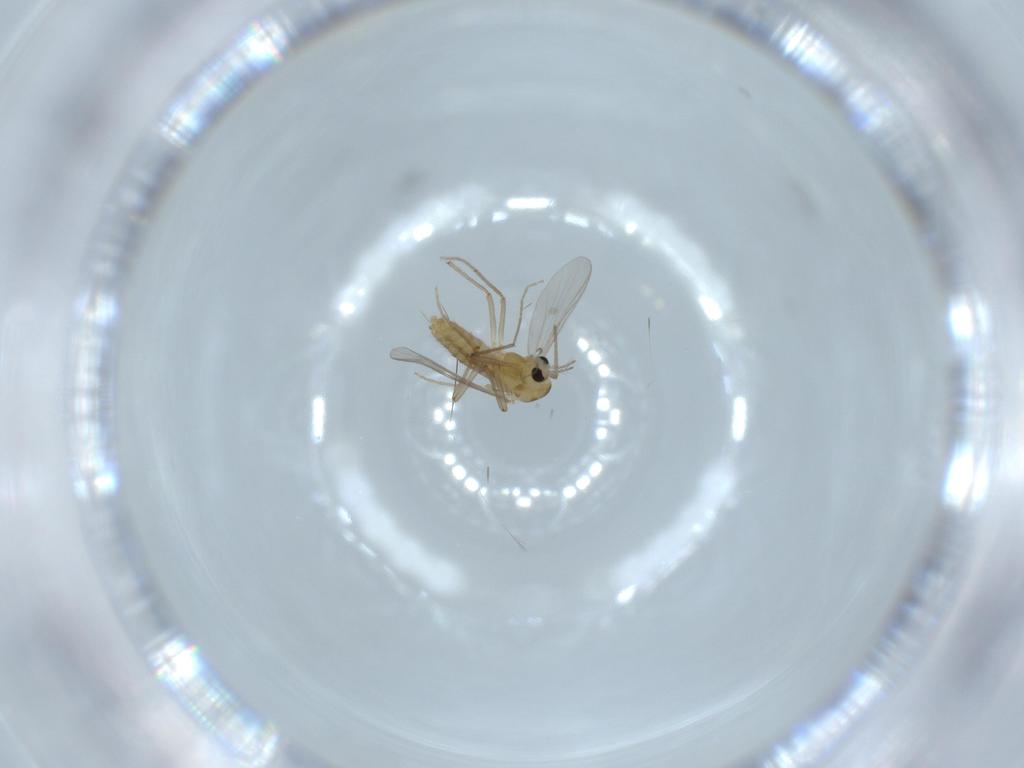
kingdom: Animalia
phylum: Arthropoda
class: Insecta
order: Diptera
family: Chironomidae
